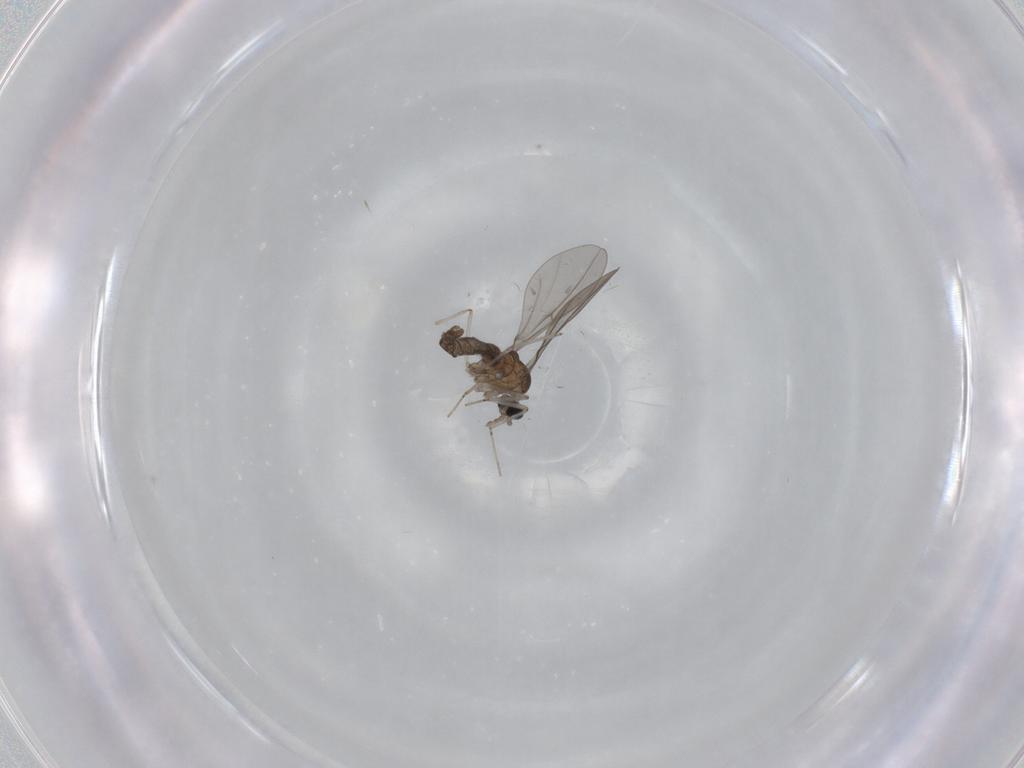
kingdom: Animalia
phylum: Arthropoda
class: Insecta
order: Diptera
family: Cecidomyiidae
